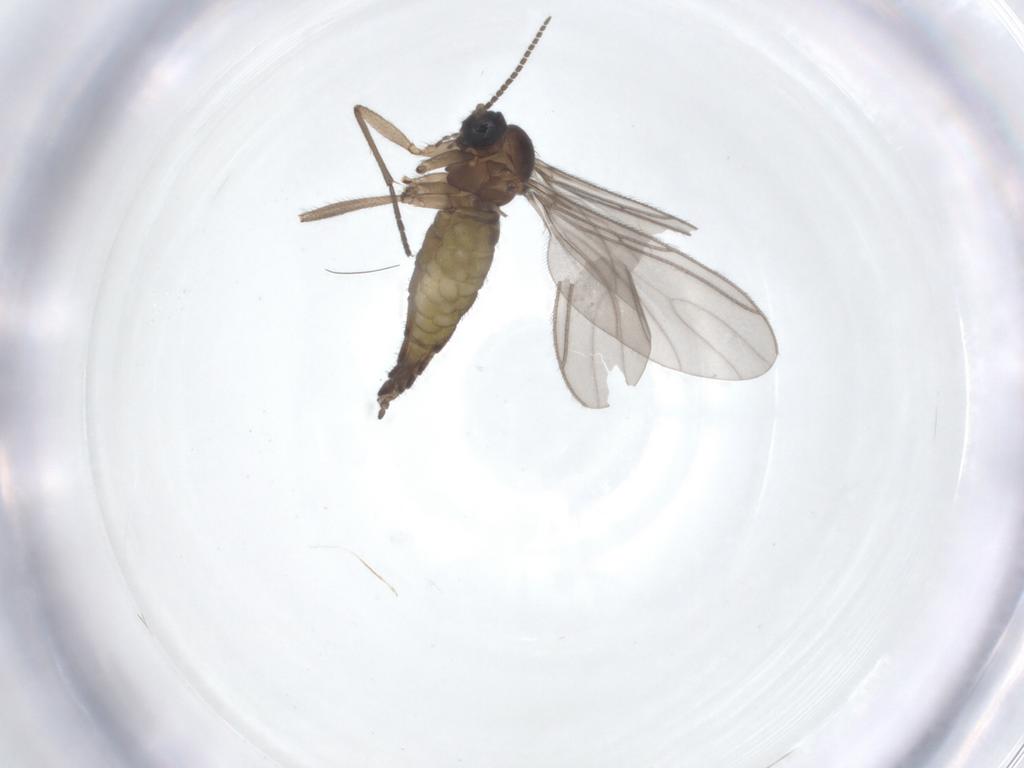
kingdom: Animalia
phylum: Arthropoda
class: Insecta
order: Diptera
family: Sciaridae
